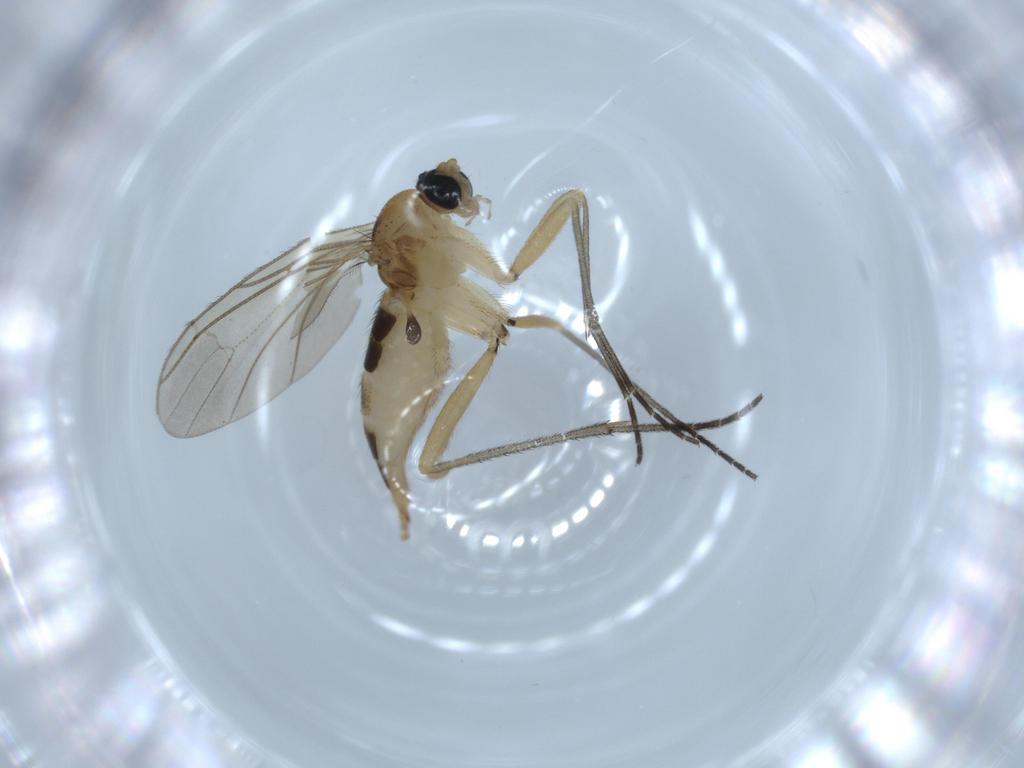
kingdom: Animalia
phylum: Arthropoda
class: Insecta
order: Diptera
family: Sciaridae
